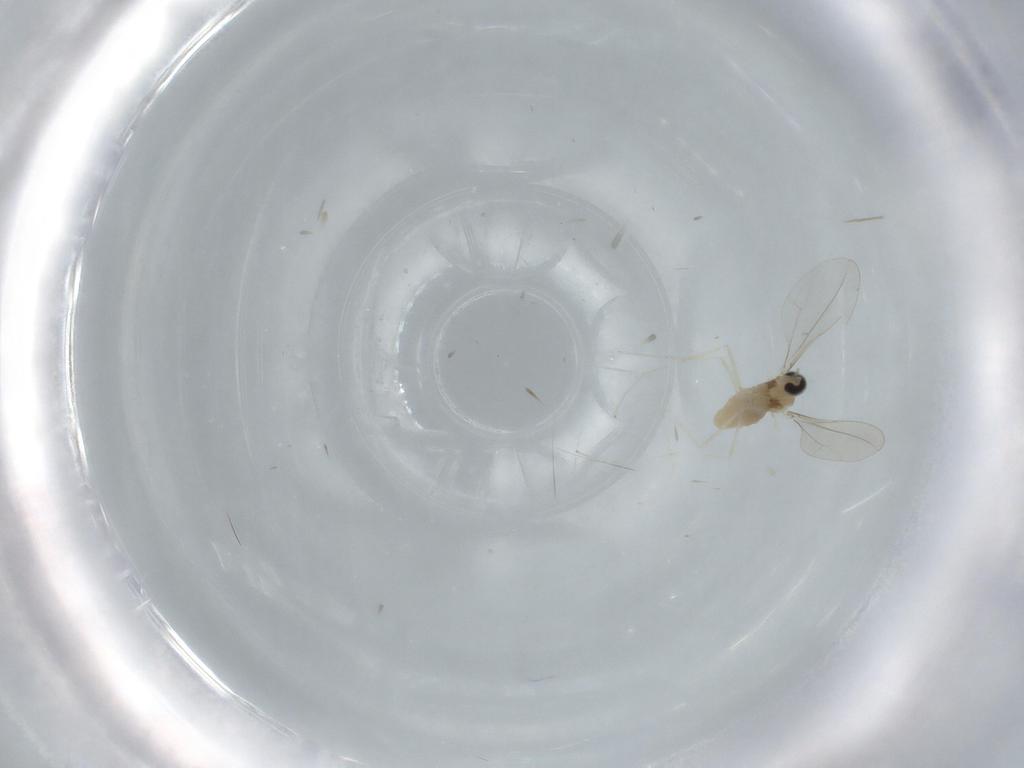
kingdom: Animalia
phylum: Arthropoda
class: Insecta
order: Diptera
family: Cecidomyiidae
